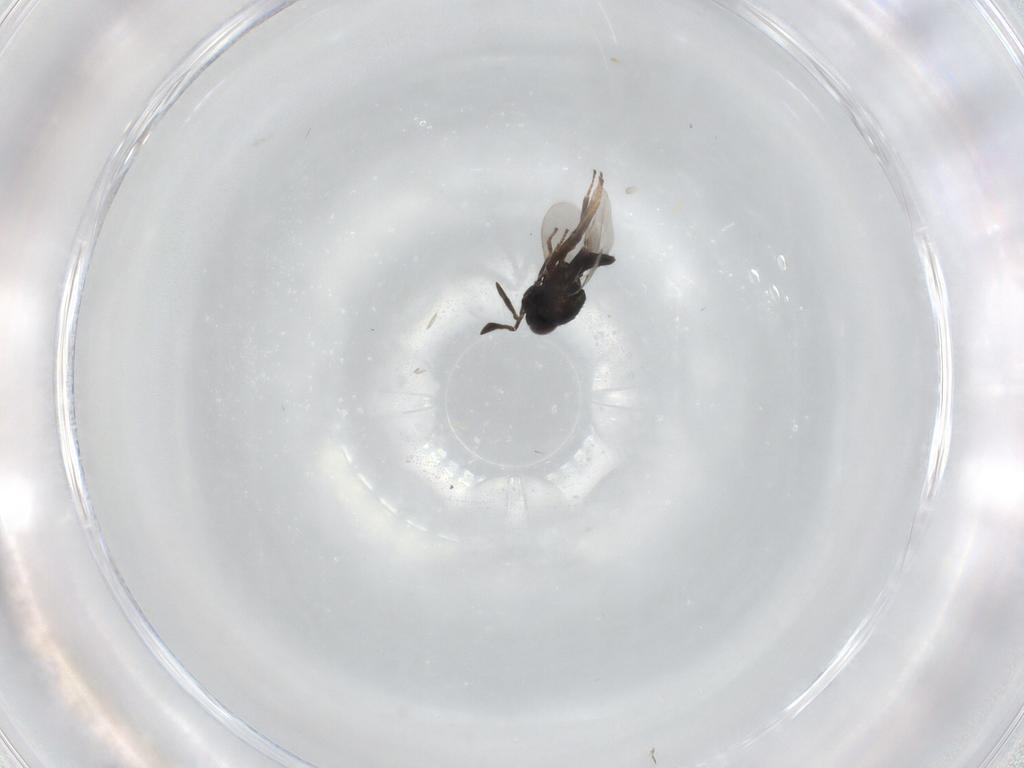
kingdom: Animalia
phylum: Arthropoda
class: Insecta
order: Hymenoptera
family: Encyrtidae
